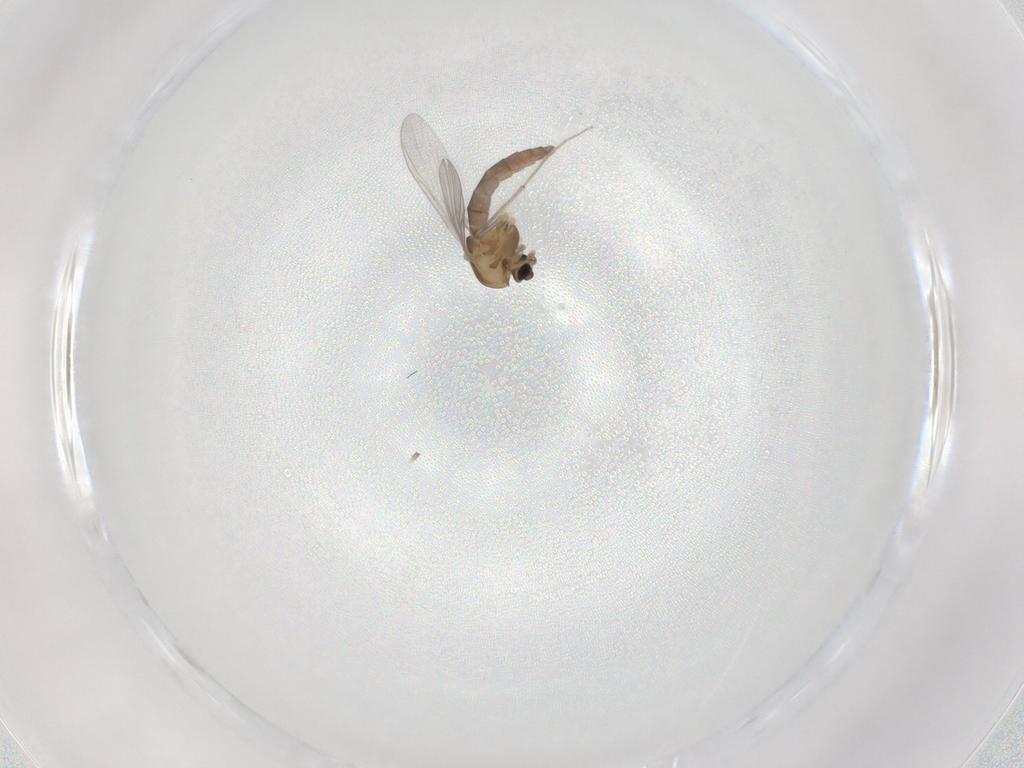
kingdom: Animalia
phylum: Arthropoda
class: Insecta
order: Diptera
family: Chironomidae
